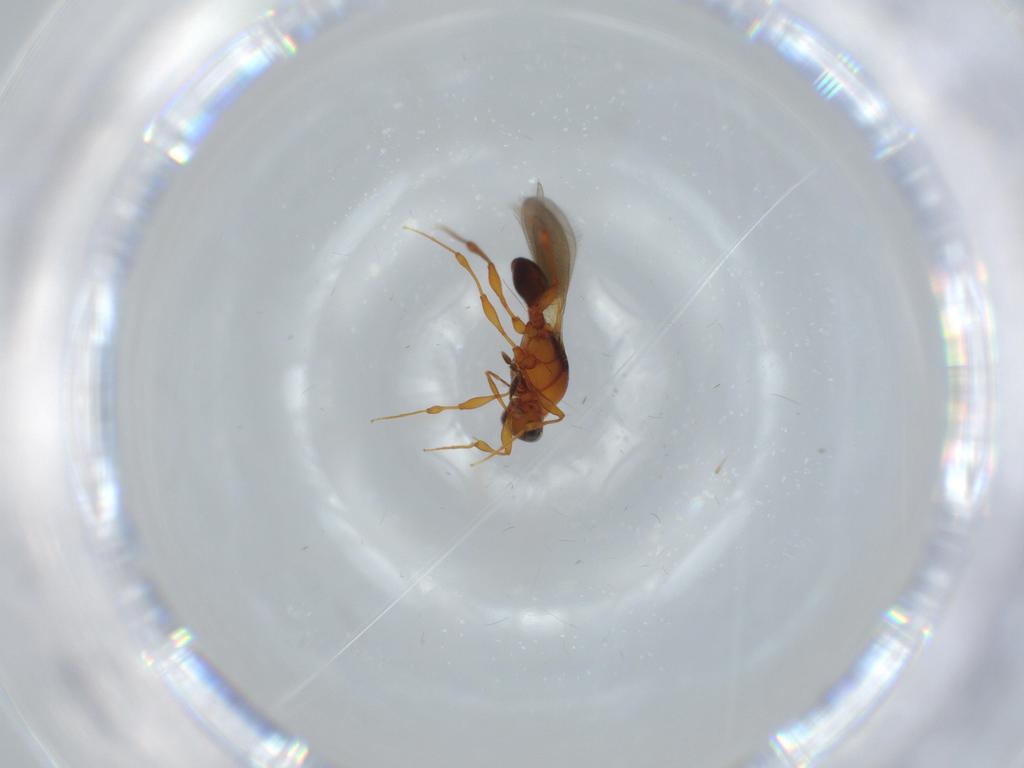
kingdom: Animalia
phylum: Arthropoda
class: Insecta
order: Hymenoptera
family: Platygastridae
